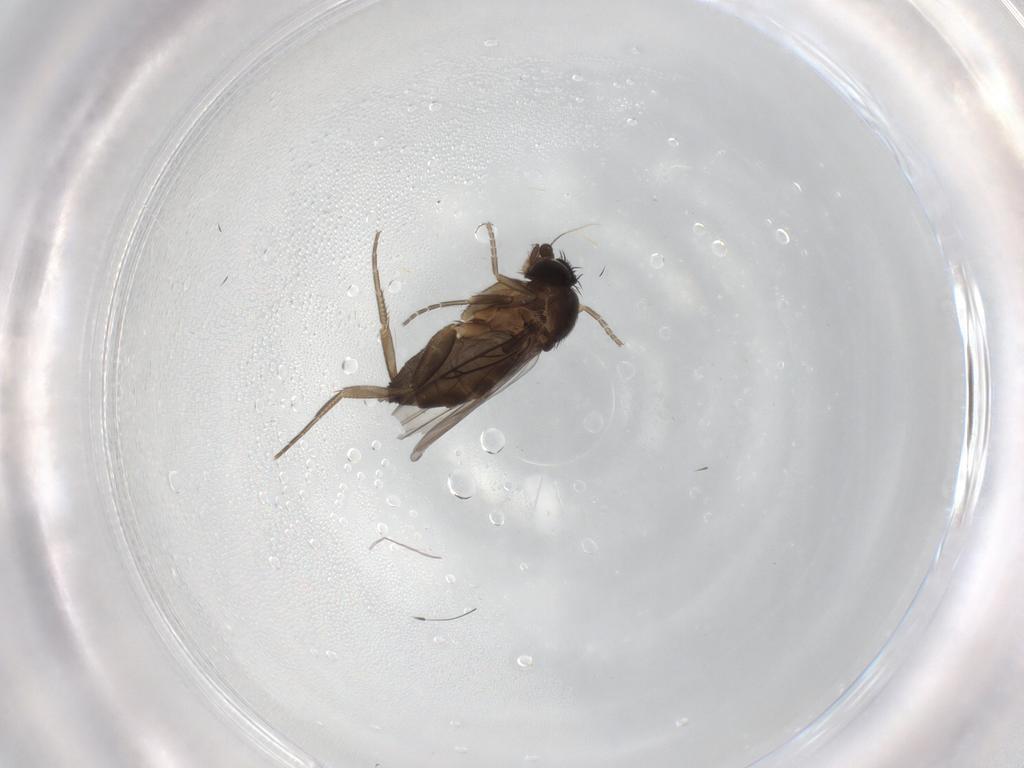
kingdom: Animalia
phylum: Arthropoda
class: Insecta
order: Diptera
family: Phoridae
